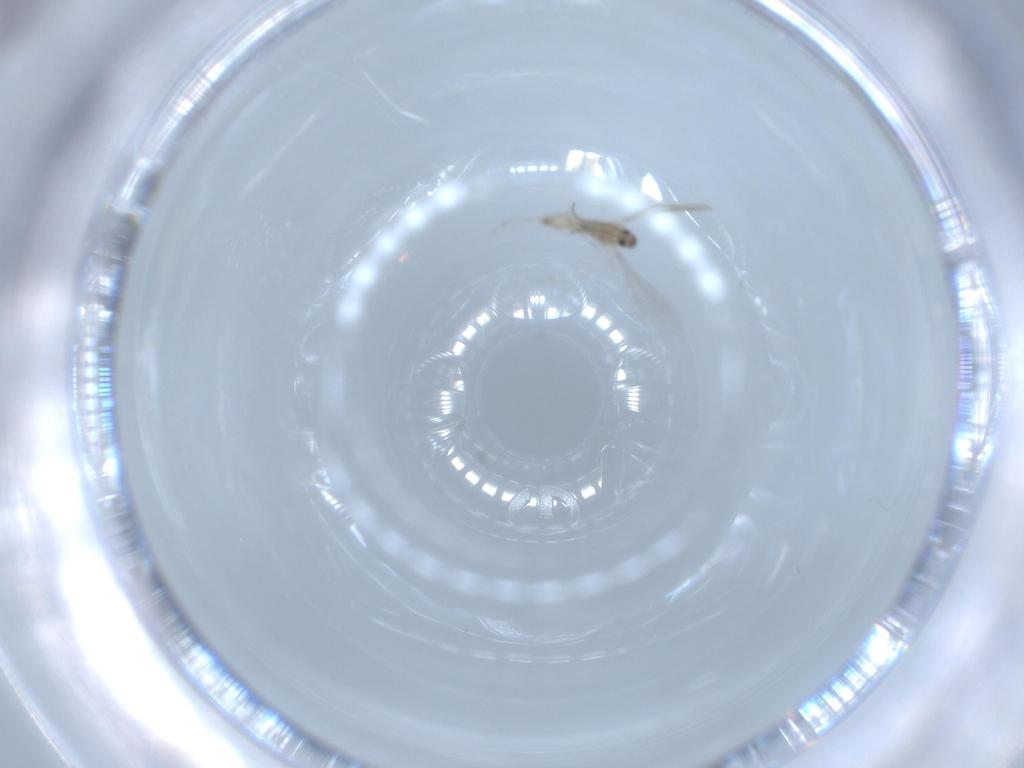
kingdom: Animalia
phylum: Arthropoda
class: Insecta
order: Diptera
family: Cecidomyiidae
